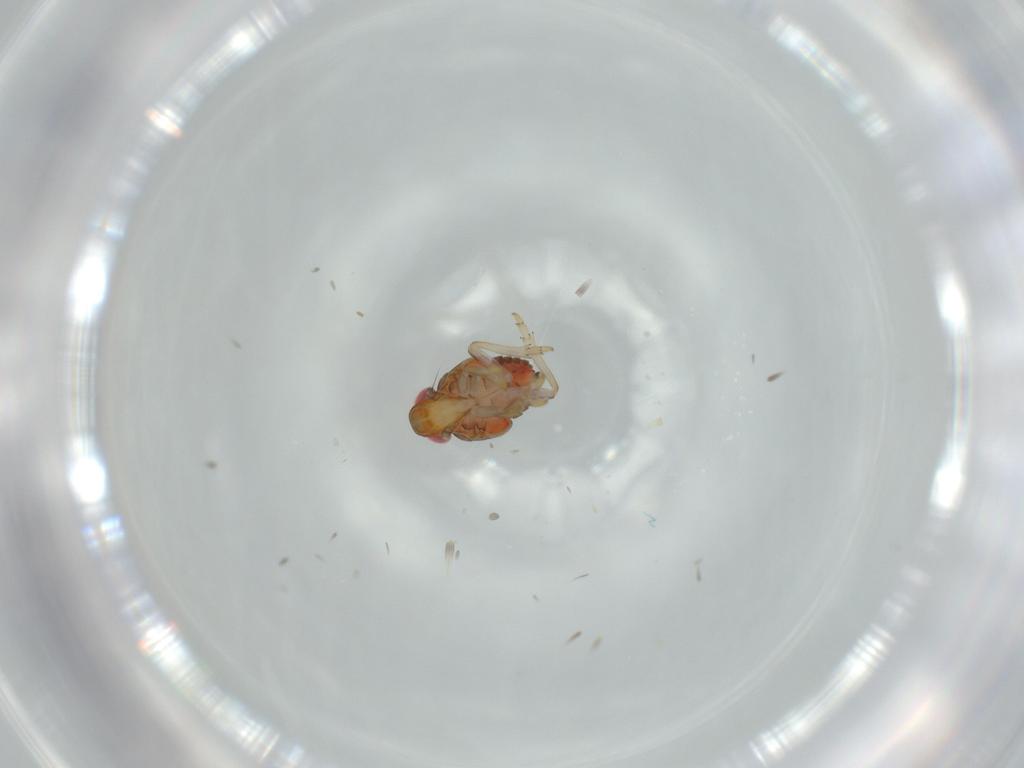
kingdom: Animalia
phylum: Arthropoda
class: Insecta
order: Hemiptera
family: Issidae
